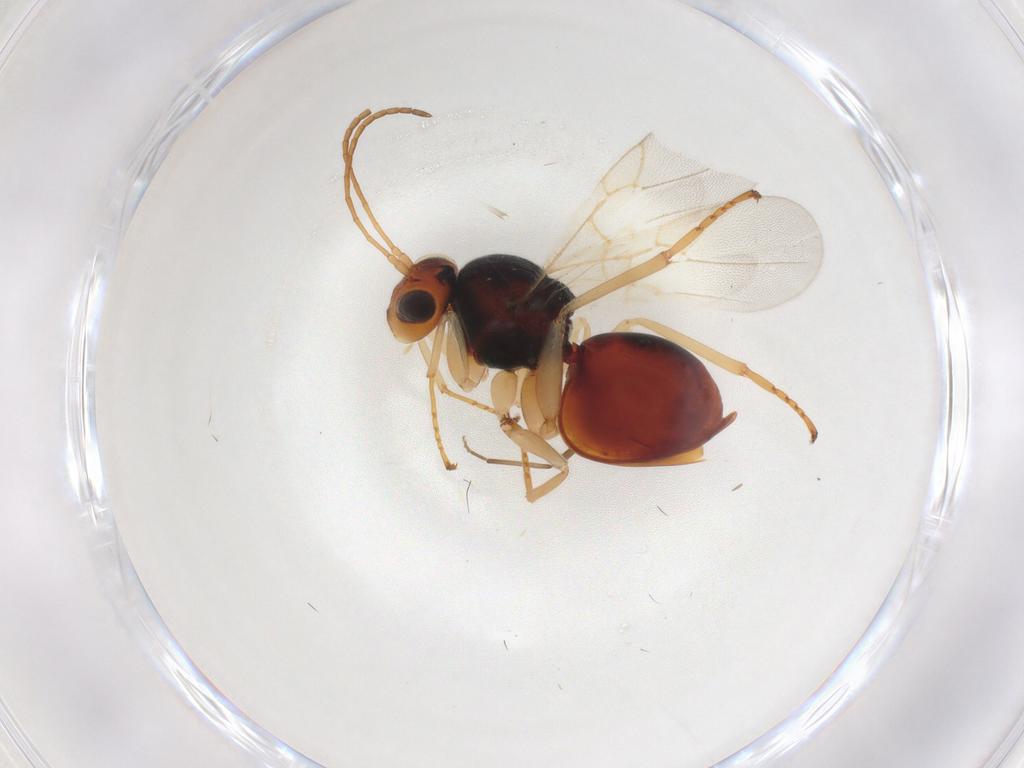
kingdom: Animalia
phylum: Arthropoda
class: Insecta
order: Hymenoptera
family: Cynipidae
